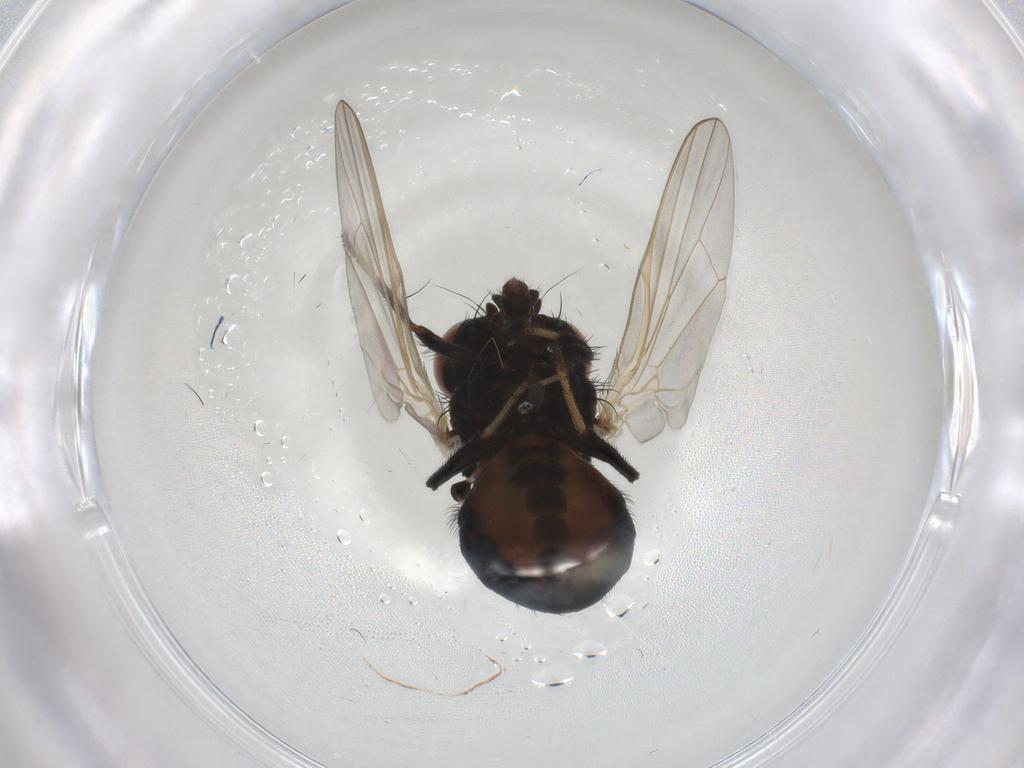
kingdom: Animalia
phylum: Arthropoda
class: Insecta
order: Diptera
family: Lonchaeidae
